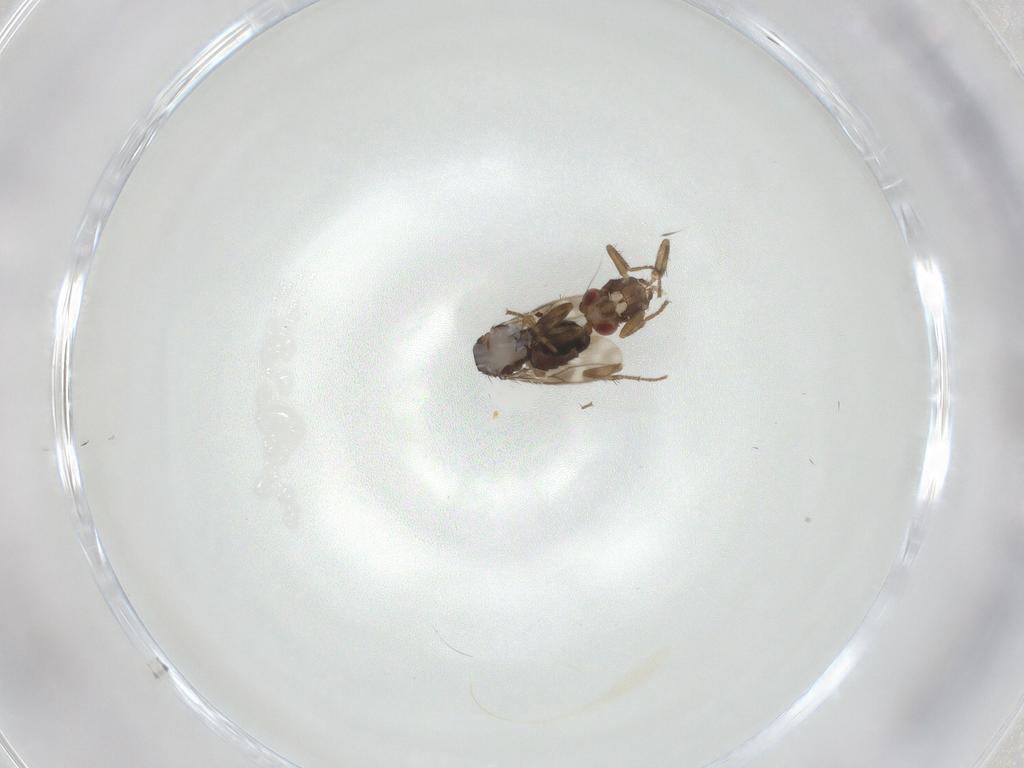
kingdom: Animalia
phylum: Arthropoda
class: Insecta
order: Diptera
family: Sphaeroceridae
